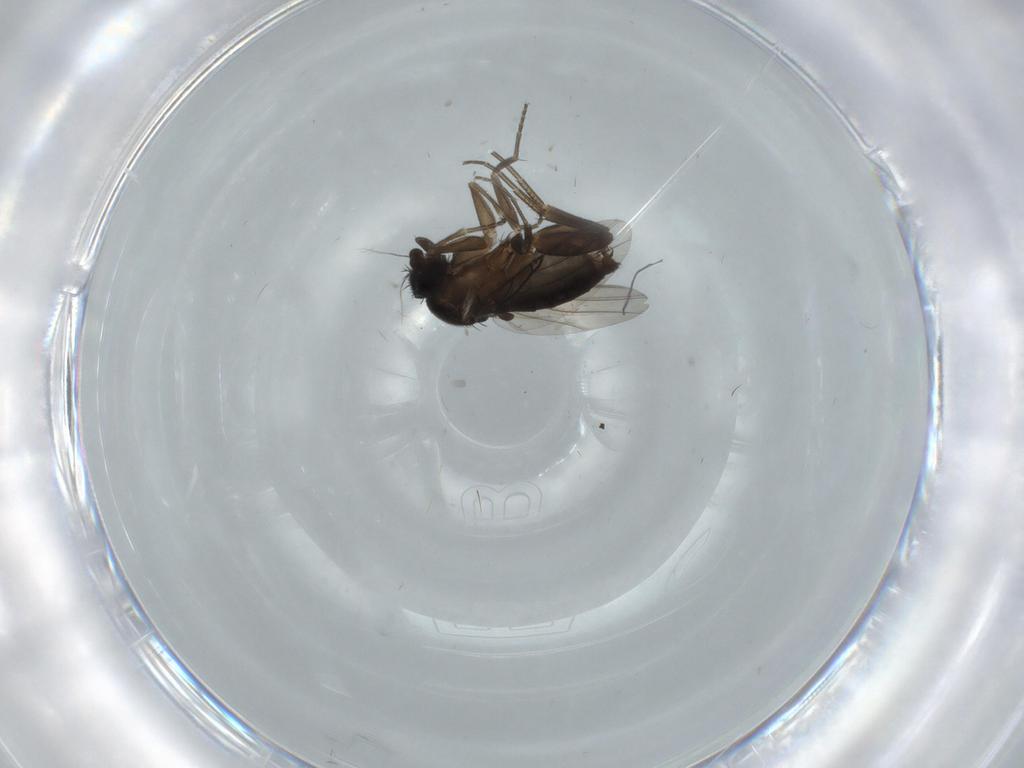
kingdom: Animalia
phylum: Arthropoda
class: Insecta
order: Diptera
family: Phoridae
